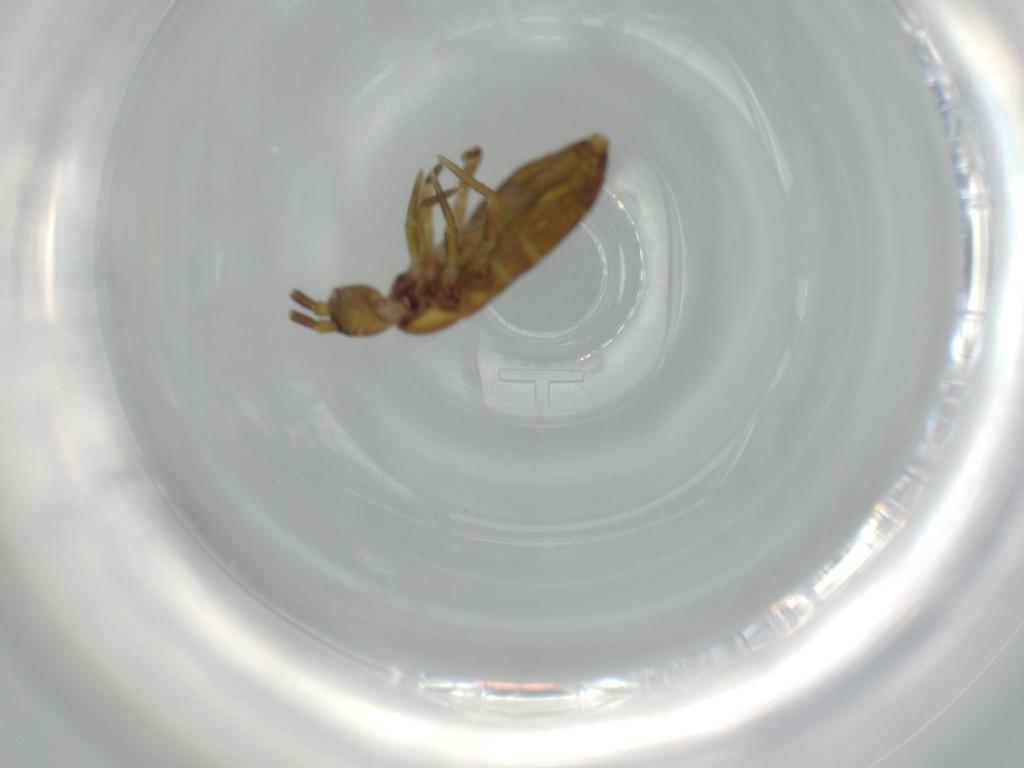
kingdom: Animalia
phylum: Arthropoda
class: Collembola
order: Entomobryomorpha
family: Tomoceridae
